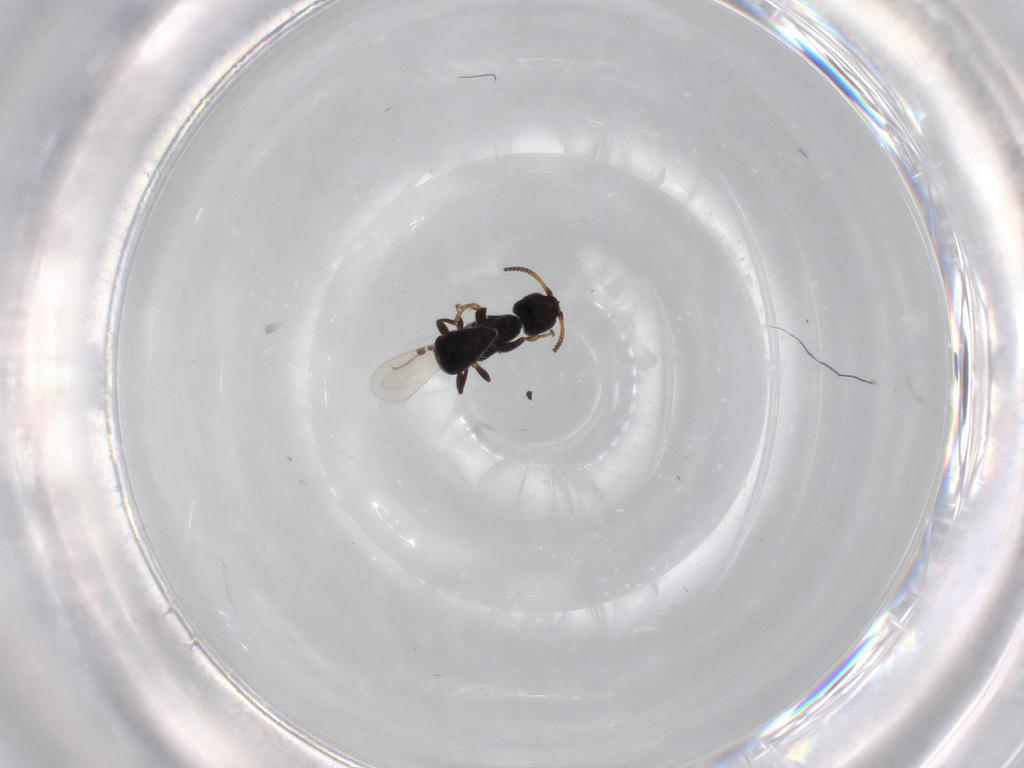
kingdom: Animalia
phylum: Arthropoda
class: Insecta
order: Hymenoptera
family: Bethylidae
